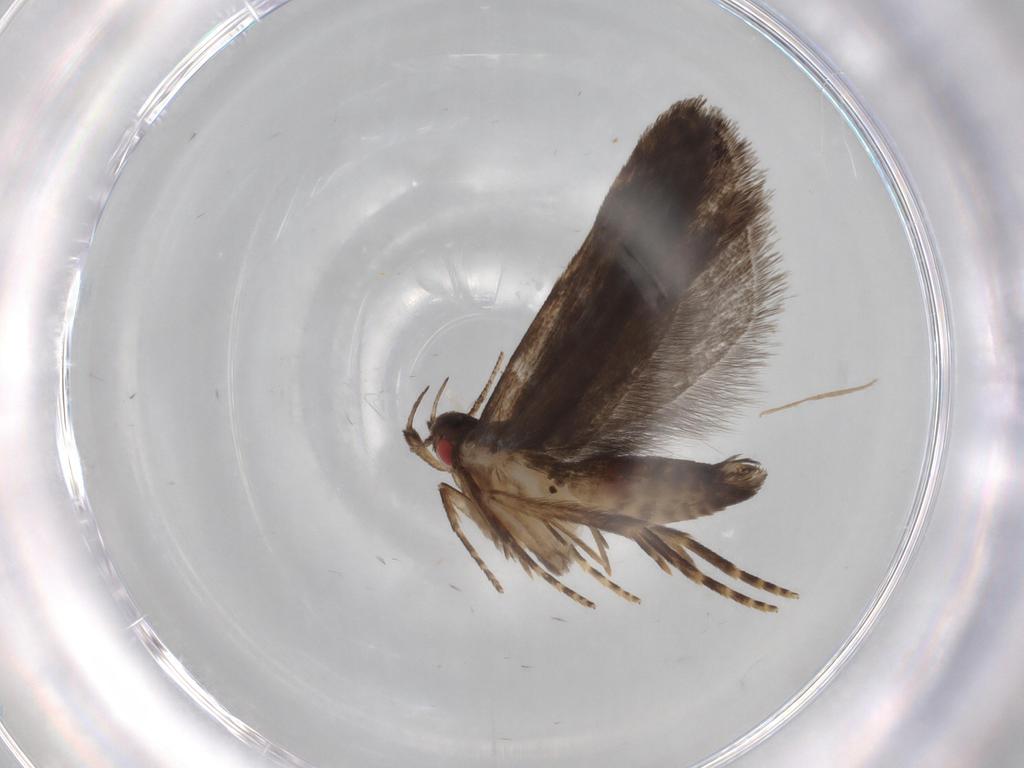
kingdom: Animalia
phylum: Arthropoda
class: Insecta
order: Lepidoptera
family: Gelechiidae
